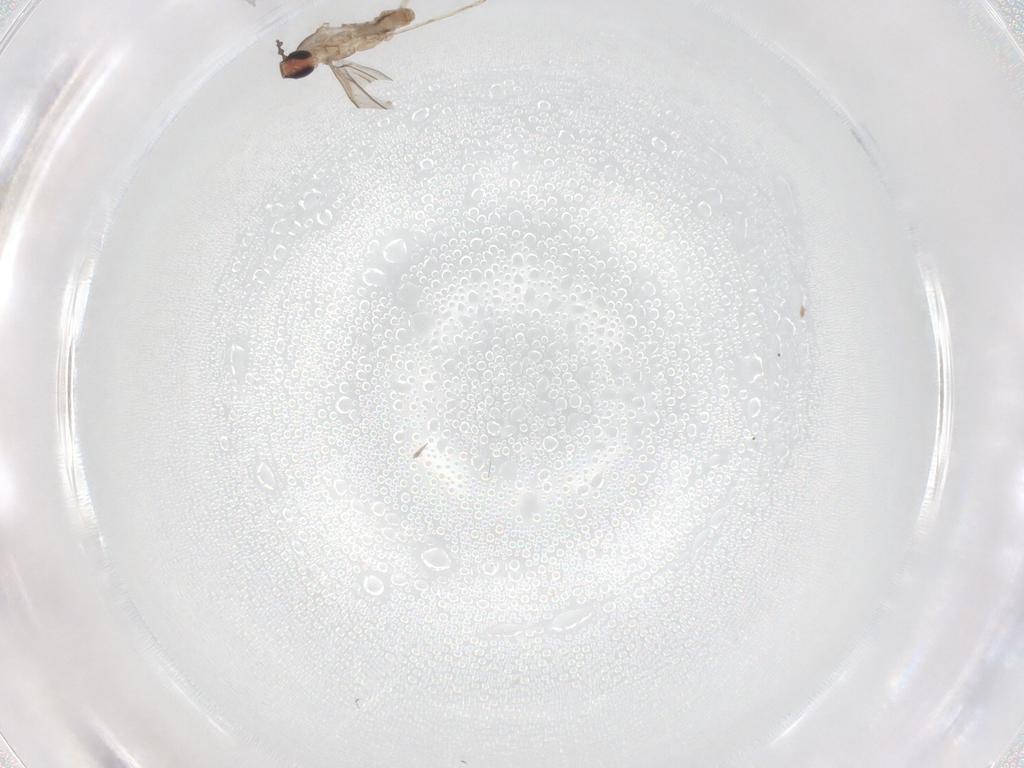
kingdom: Animalia
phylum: Arthropoda
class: Insecta
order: Diptera
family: Cecidomyiidae
